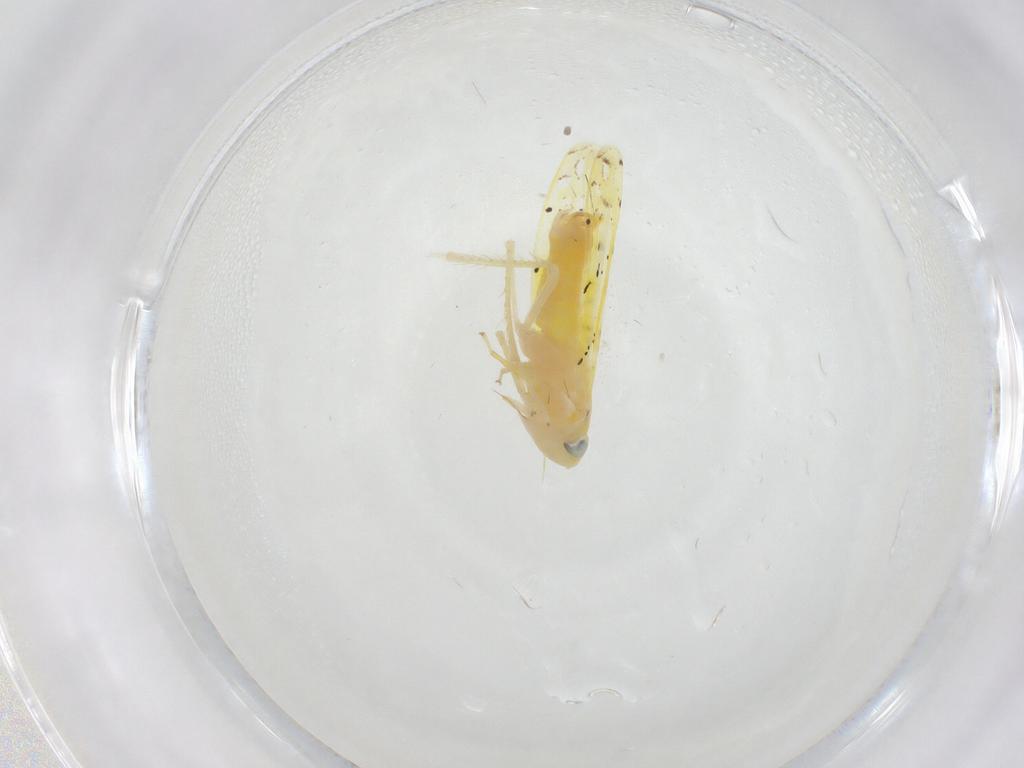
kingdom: Animalia
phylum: Arthropoda
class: Insecta
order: Hemiptera
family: Cicadellidae
